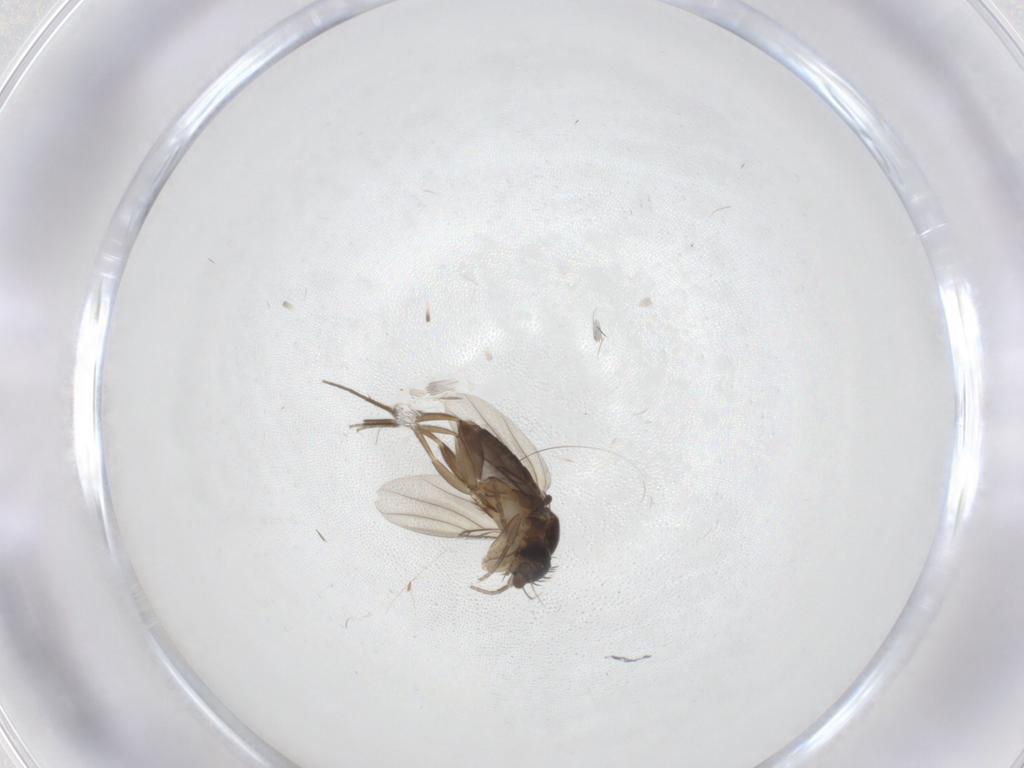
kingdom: Animalia
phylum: Arthropoda
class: Insecta
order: Diptera
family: Phoridae
